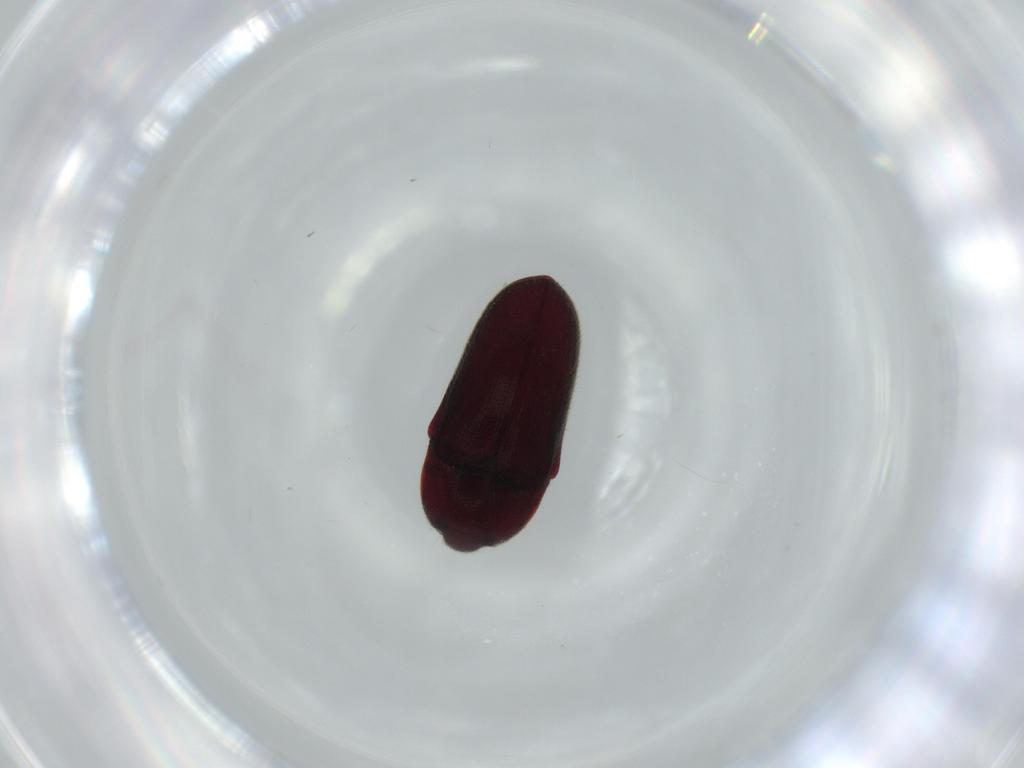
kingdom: Animalia
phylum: Arthropoda
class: Insecta
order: Coleoptera
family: Throscidae
